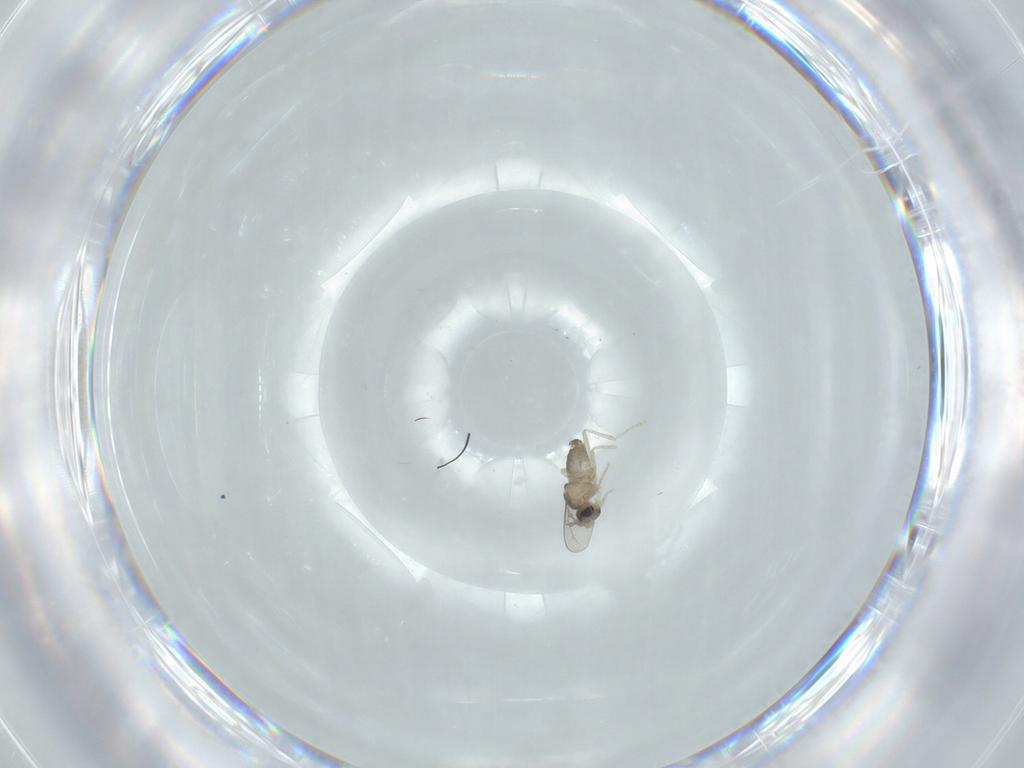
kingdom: Animalia
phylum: Arthropoda
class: Insecta
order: Diptera
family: Cecidomyiidae
